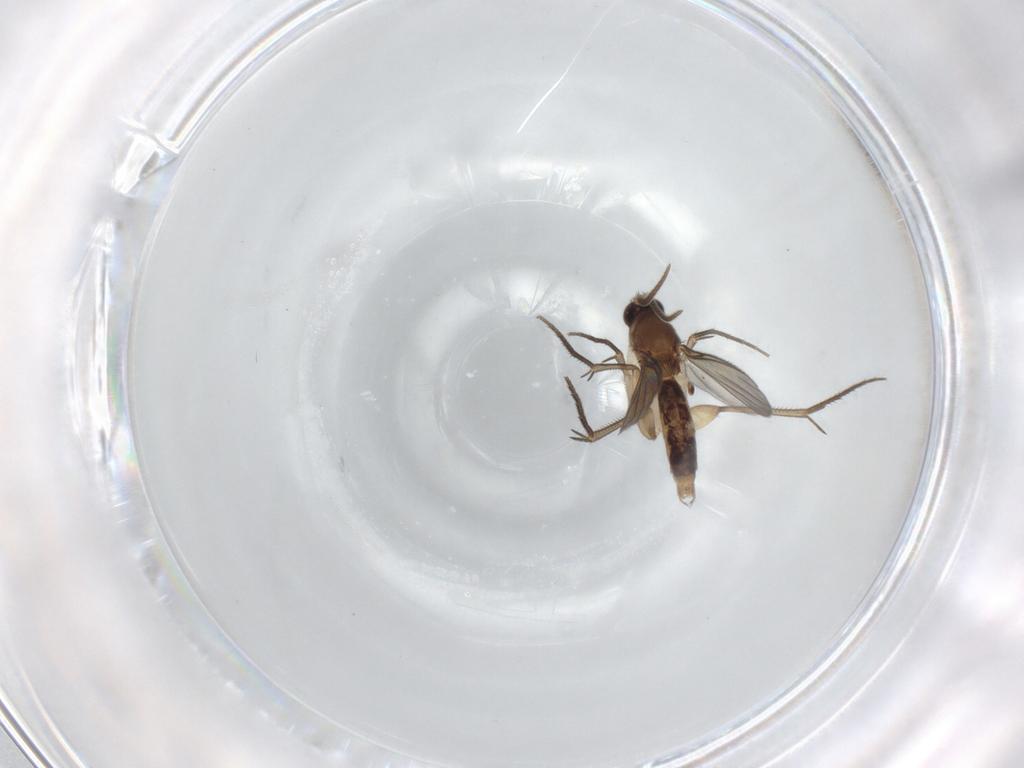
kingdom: Animalia
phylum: Arthropoda
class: Insecta
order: Diptera
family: Mycetophilidae
